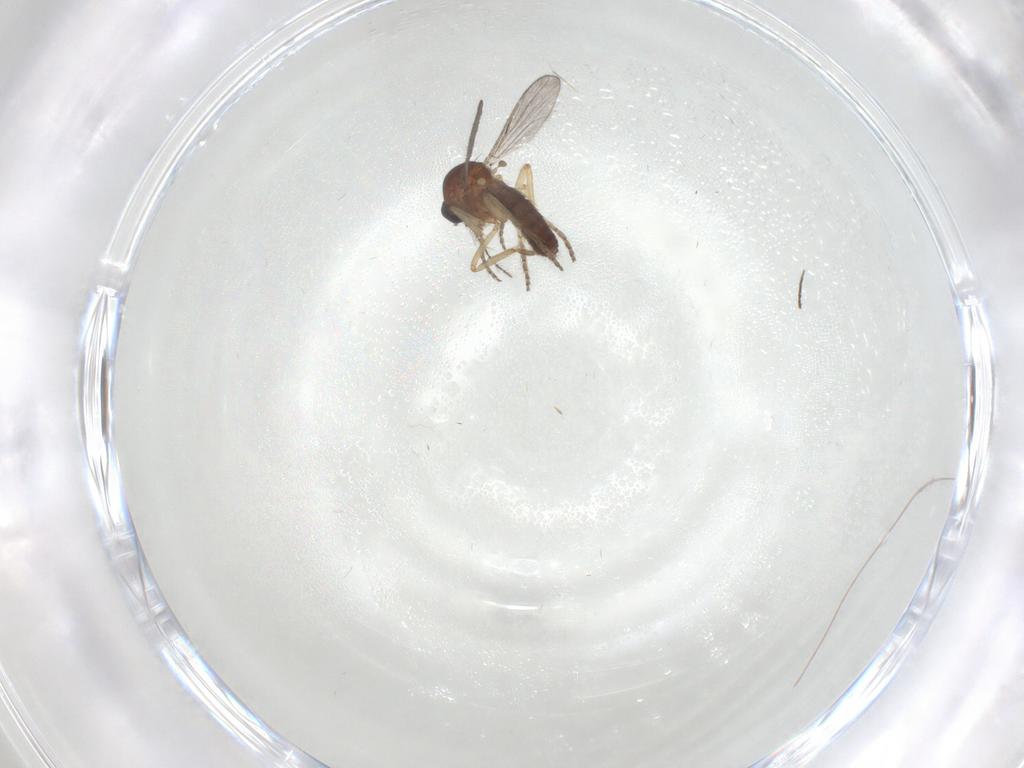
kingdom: Animalia
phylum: Arthropoda
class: Insecta
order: Diptera
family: Ceratopogonidae
